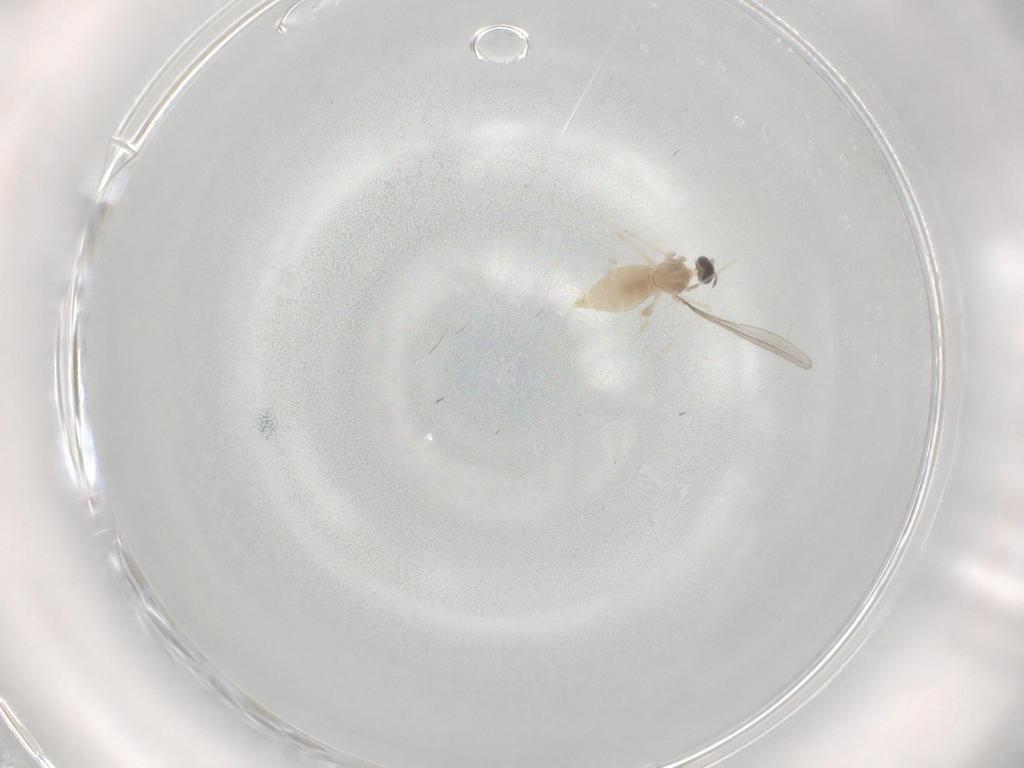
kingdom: Animalia
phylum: Arthropoda
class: Insecta
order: Diptera
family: Cecidomyiidae
